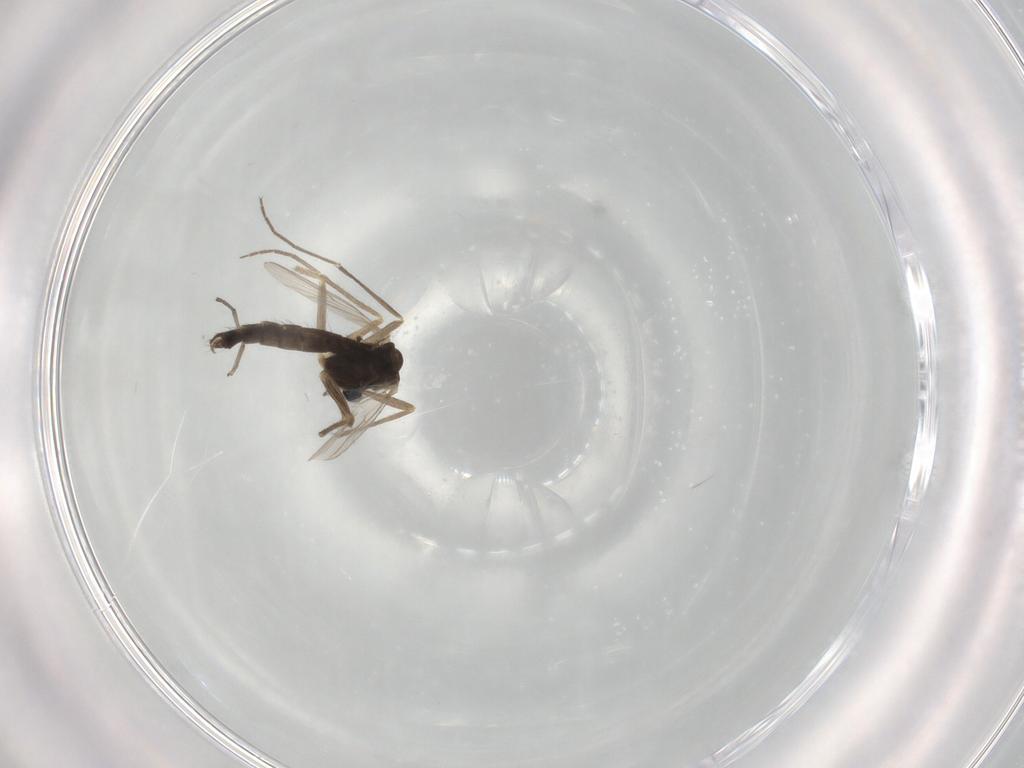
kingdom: Animalia
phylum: Arthropoda
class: Insecta
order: Diptera
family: Chironomidae
